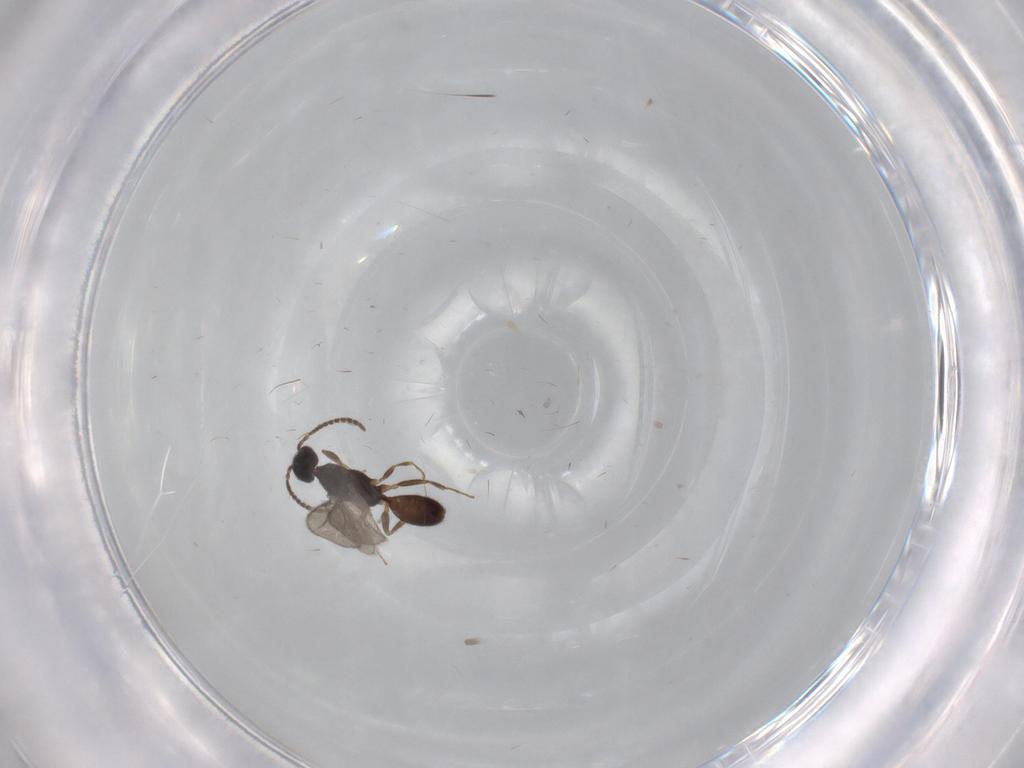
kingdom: Animalia
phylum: Arthropoda
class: Insecta
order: Hymenoptera
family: Bethylidae
